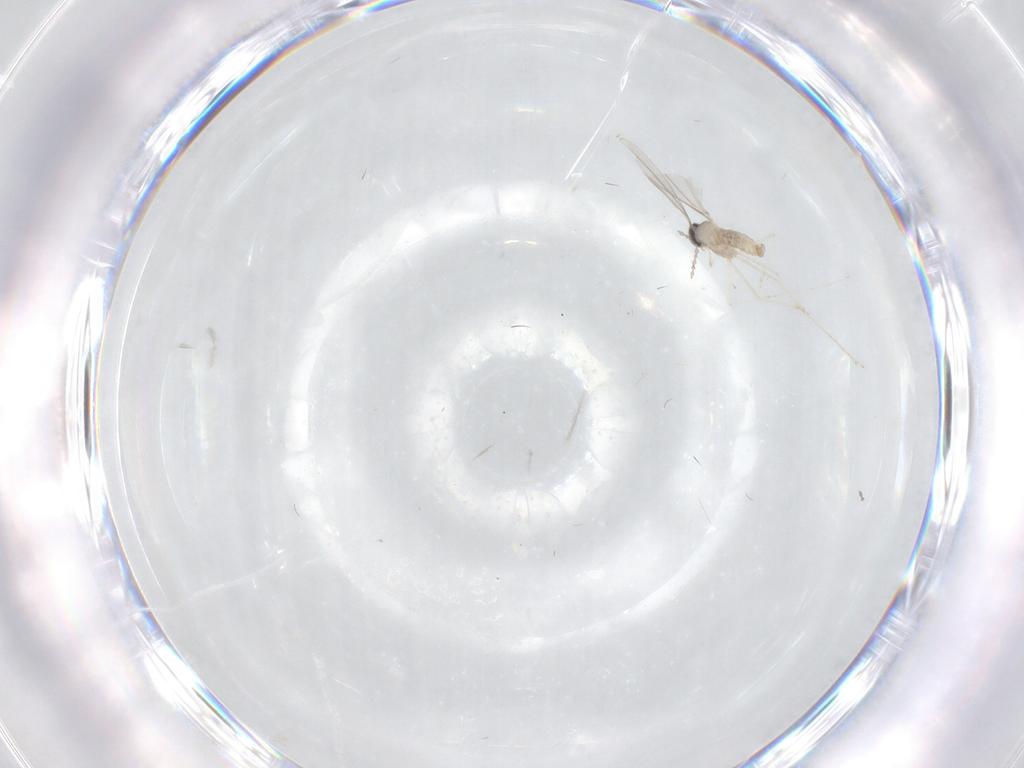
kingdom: Animalia
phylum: Arthropoda
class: Insecta
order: Diptera
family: Cecidomyiidae
